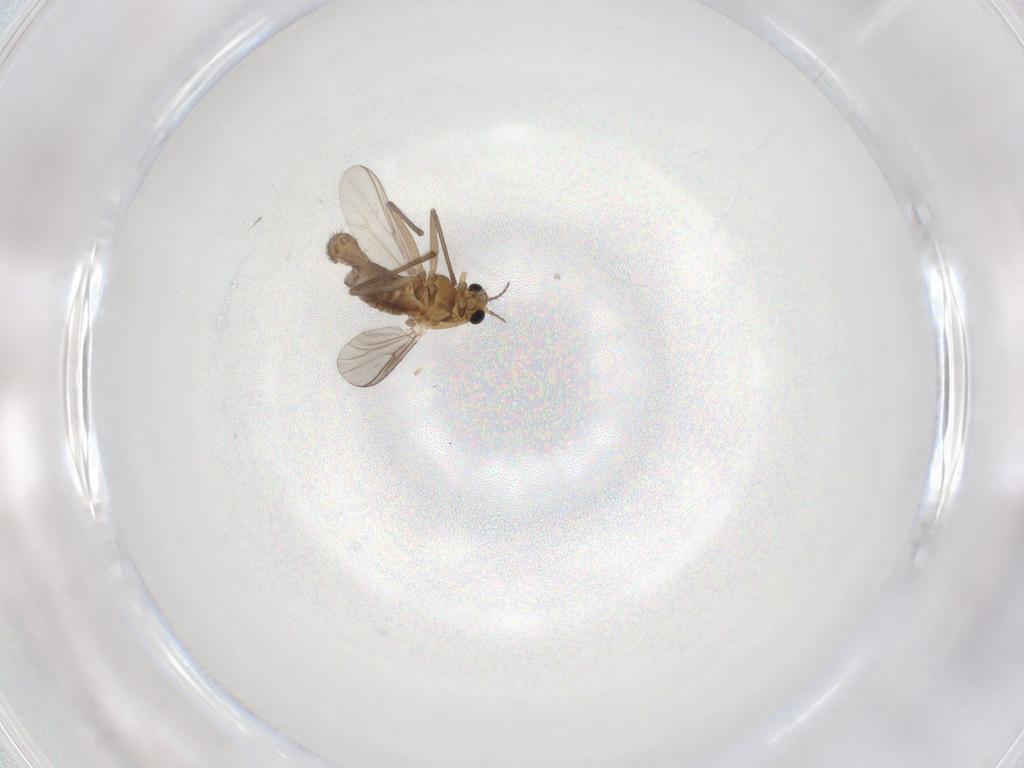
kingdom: Animalia
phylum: Arthropoda
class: Insecta
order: Diptera
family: Chironomidae
